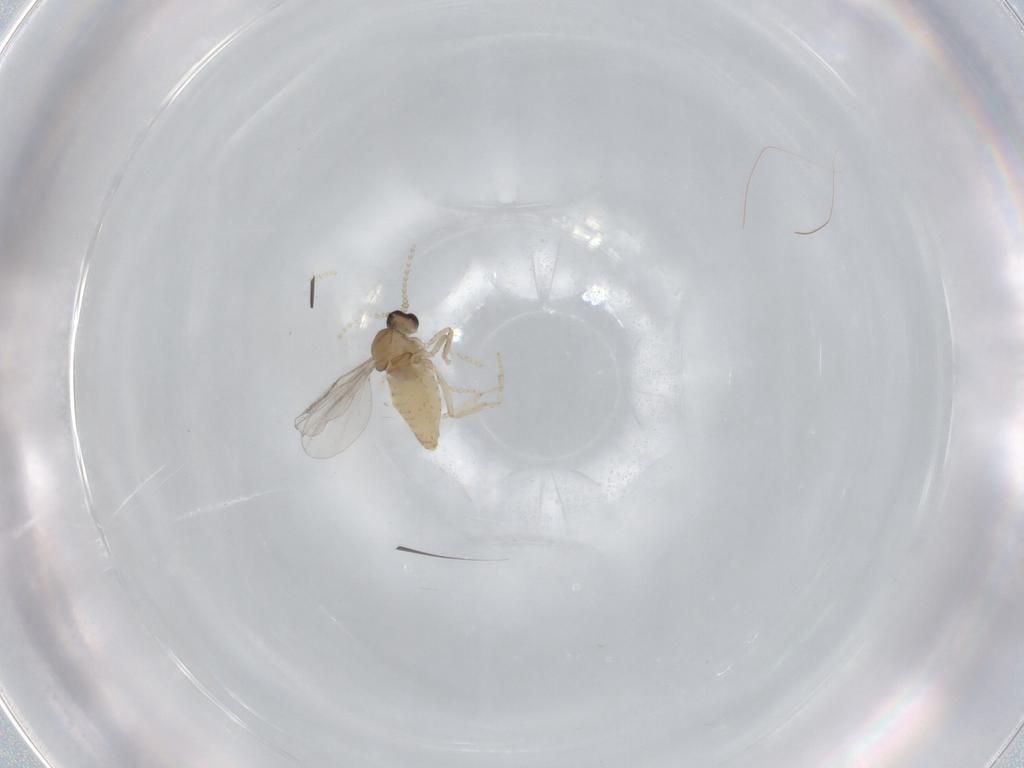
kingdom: Animalia
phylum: Arthropoda
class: Insecta
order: Diptera
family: Cecidomyiidae
